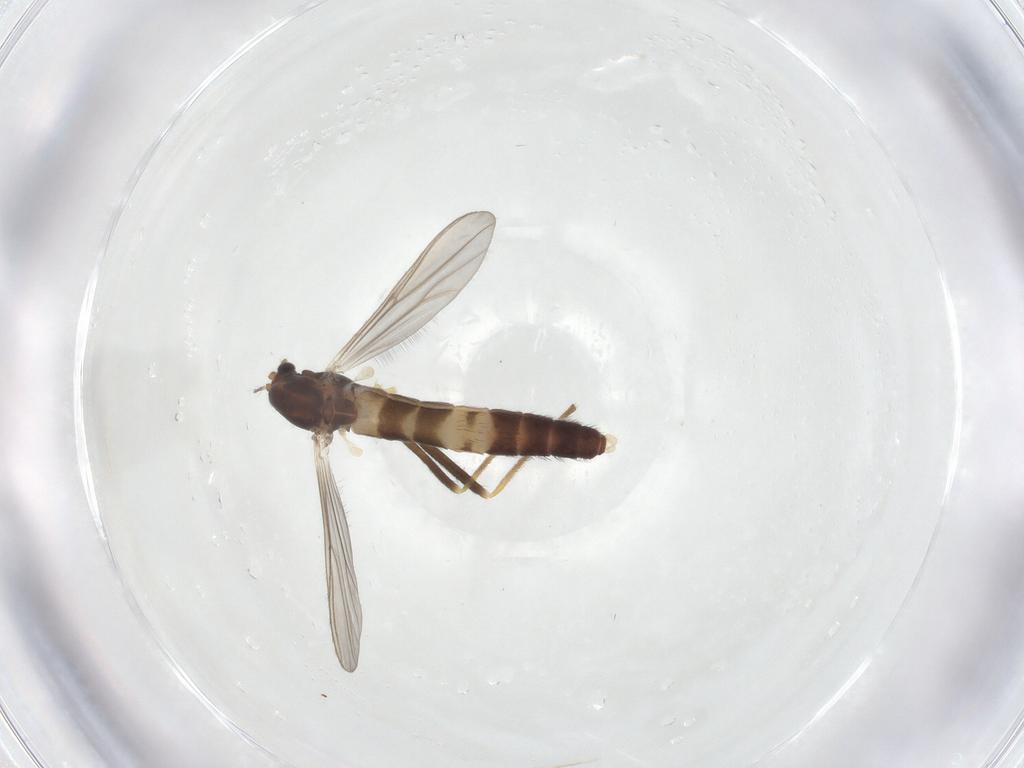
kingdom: Animalia
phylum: Arthropoda
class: Insecta
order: Diptera
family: Chironomidae
